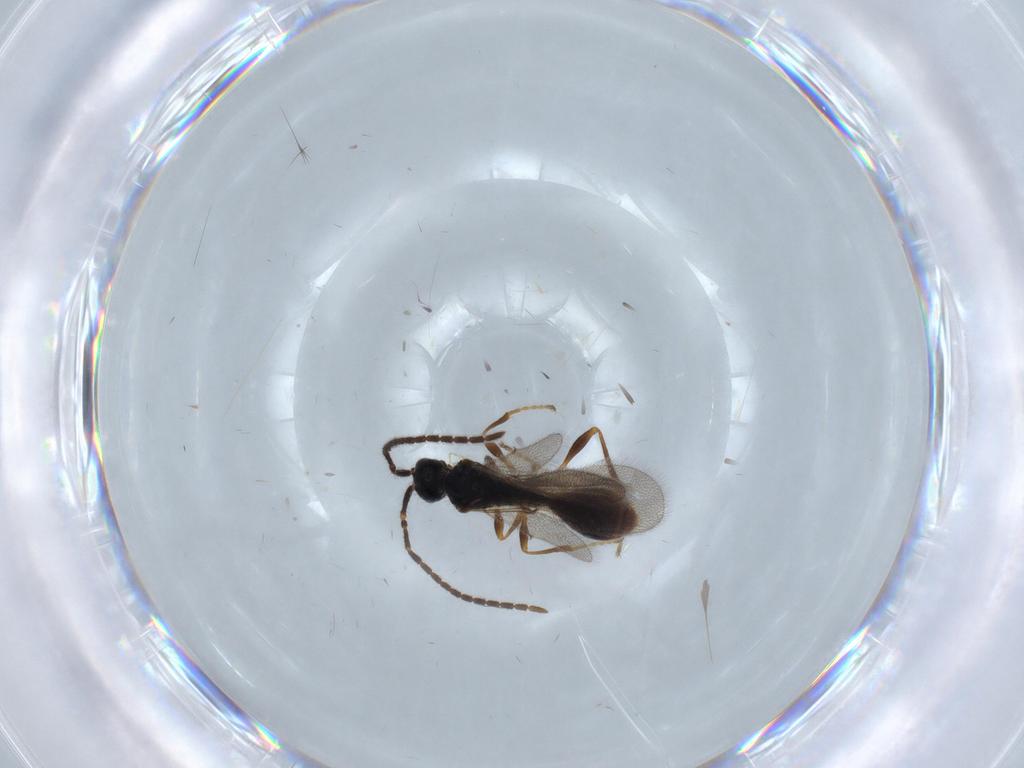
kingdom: Animalia
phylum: Arthropoda
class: Insecta
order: Hymenoptera
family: Diapriidae
